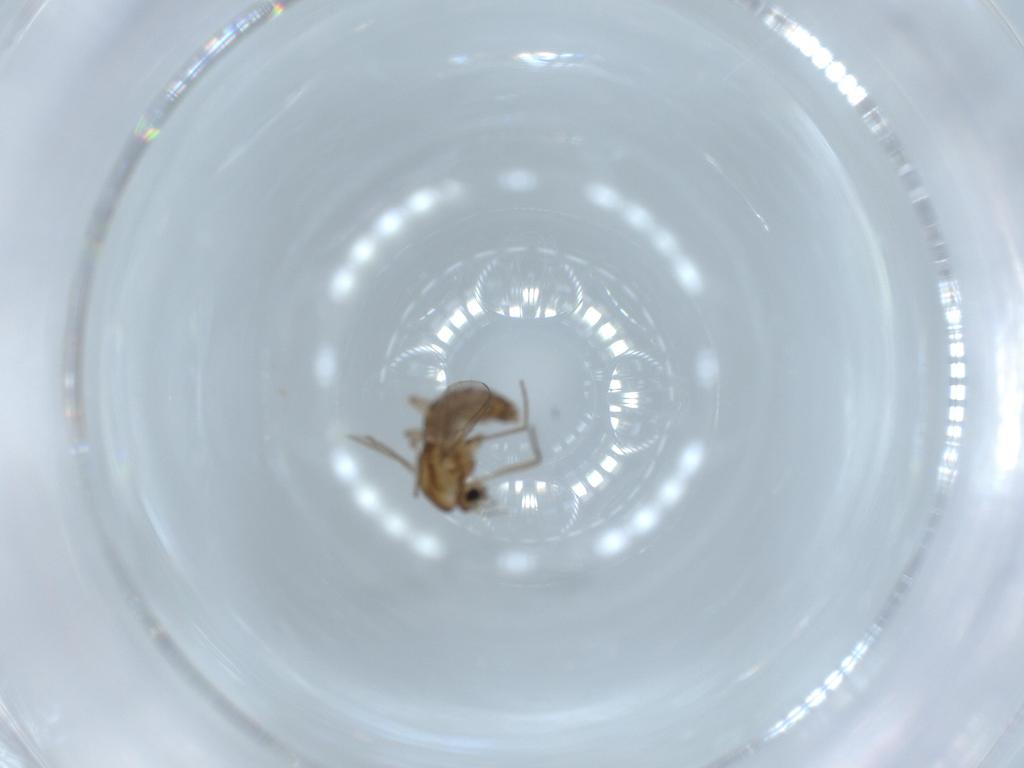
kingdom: Animalia
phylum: Arthropoda
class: Insecta
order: Diptera
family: Chironomidae
